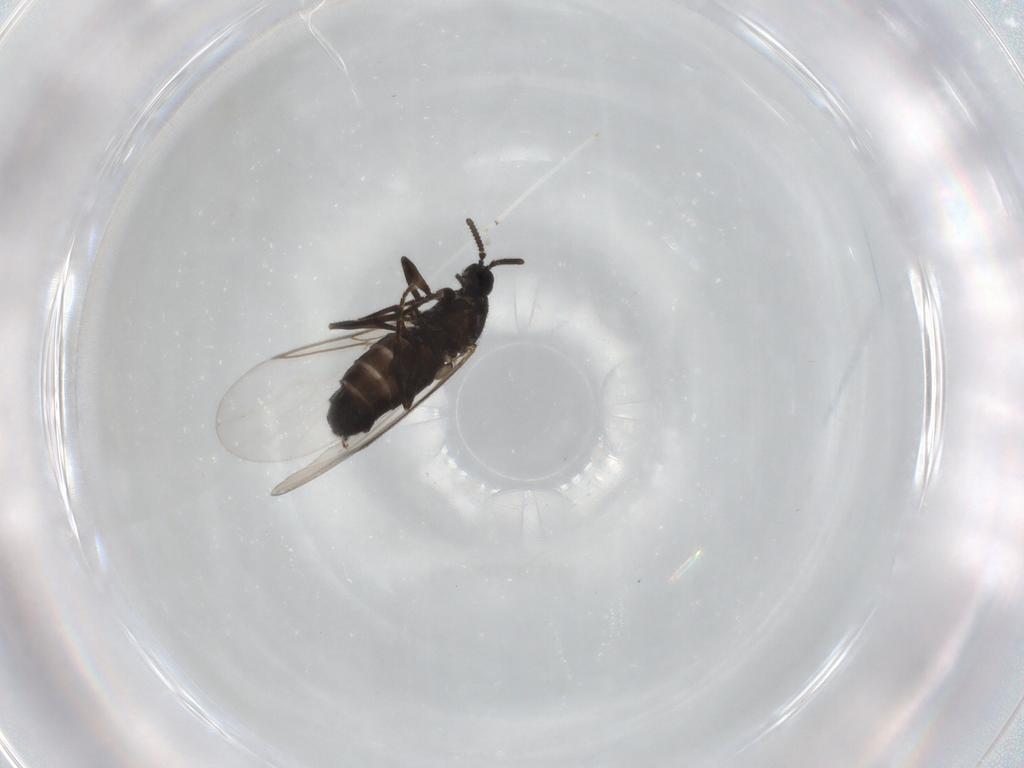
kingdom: Animalia
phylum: Arthropoda
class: Insecta
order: Diptera
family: Scatopsidae
